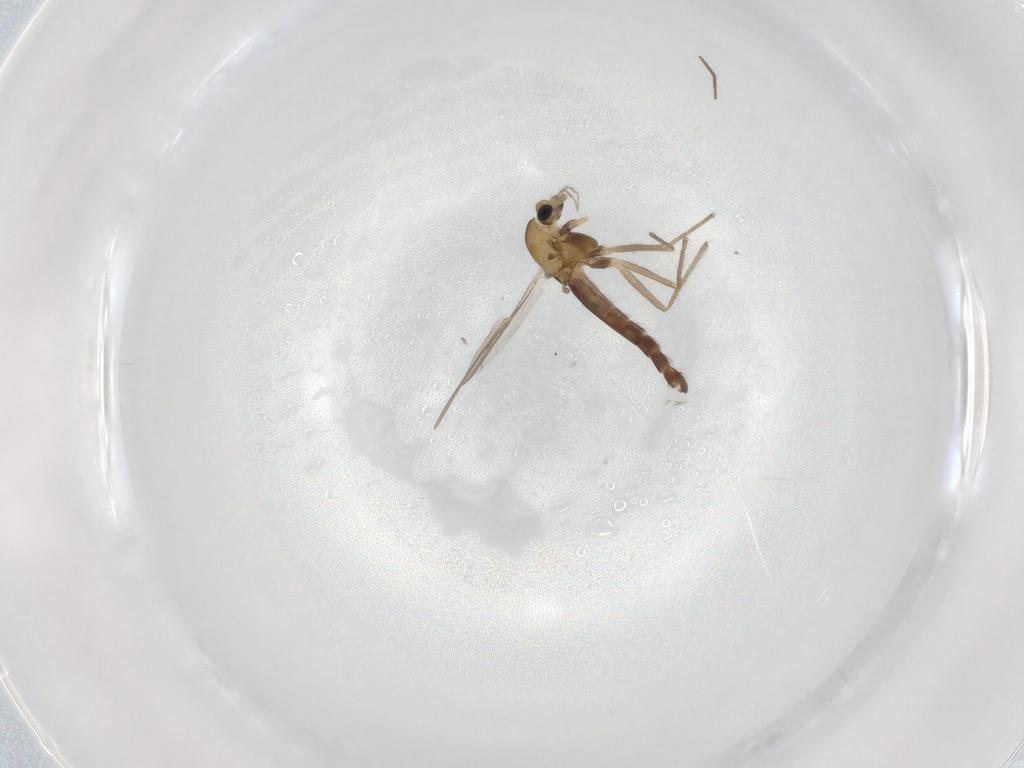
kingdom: Animalia
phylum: Arthropoda
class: Insecta
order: Diptera
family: Chironomidae
